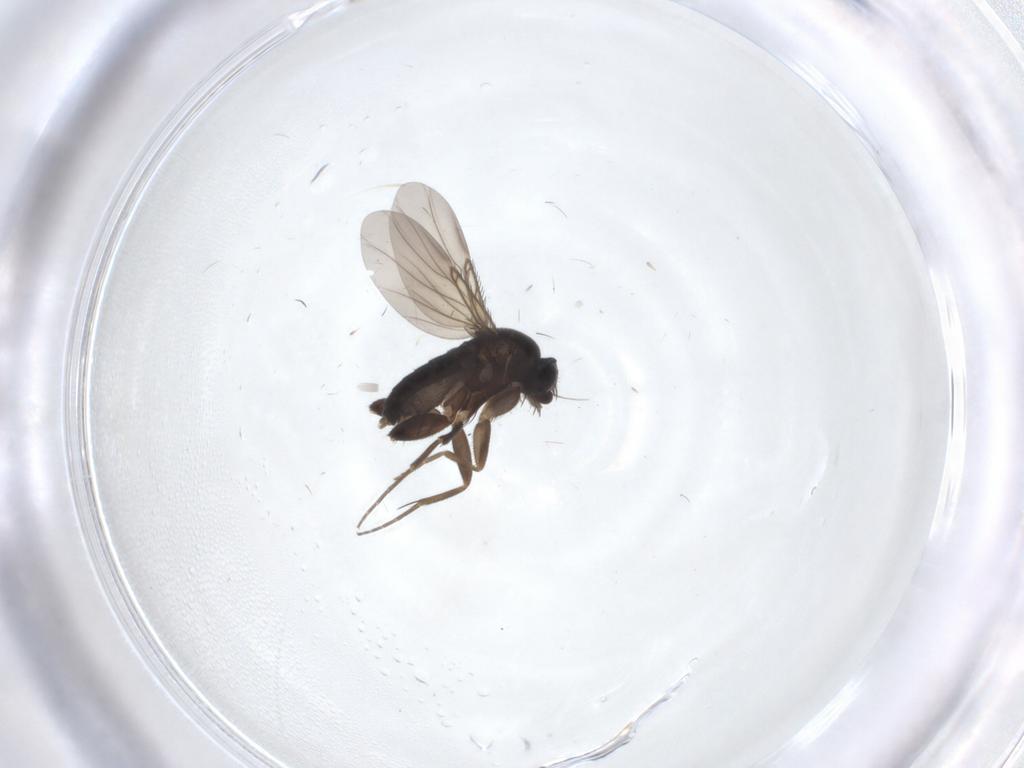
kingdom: Animalia
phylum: Arthropoda
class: Insecta
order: Diptera
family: Phoridae
